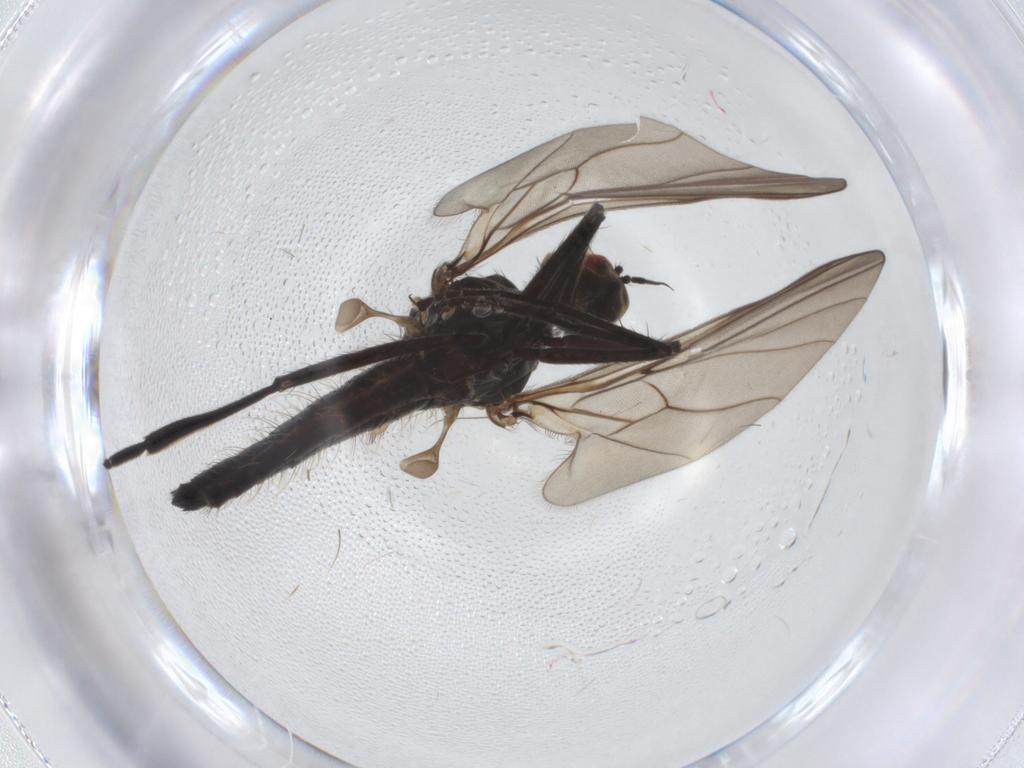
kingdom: Animalia
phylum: Arthropoda
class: Insecta
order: Diptera
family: Hybotidae
